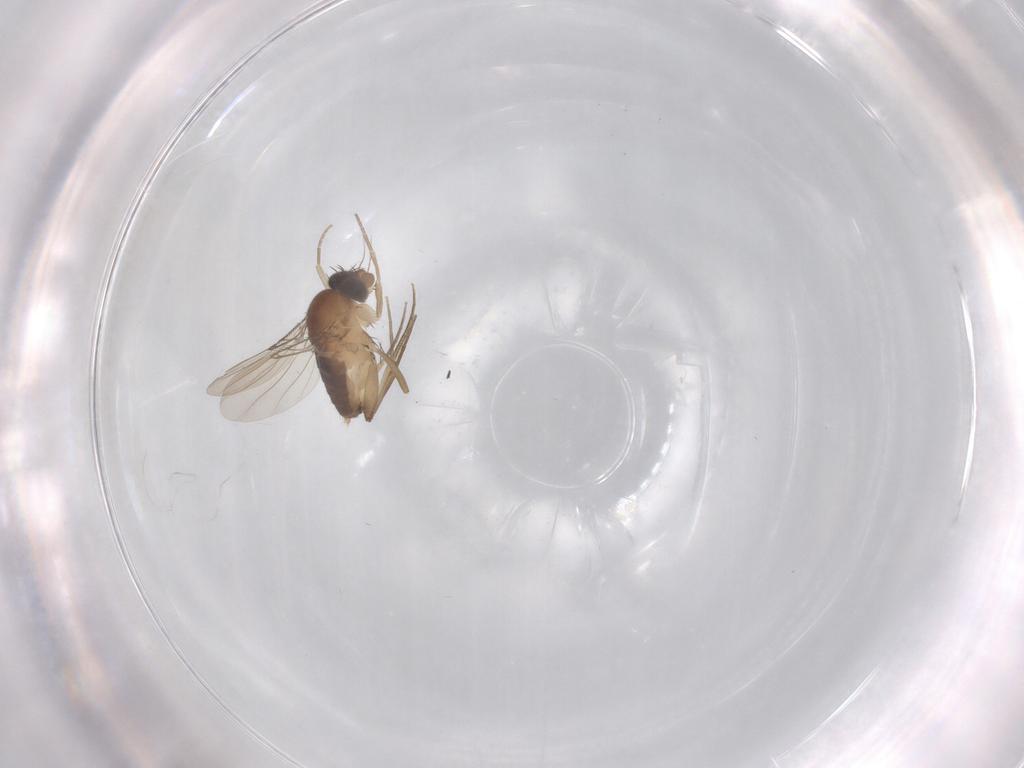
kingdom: Animalia
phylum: Arthropoda
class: Insecta
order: Diptera
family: Phoridae
